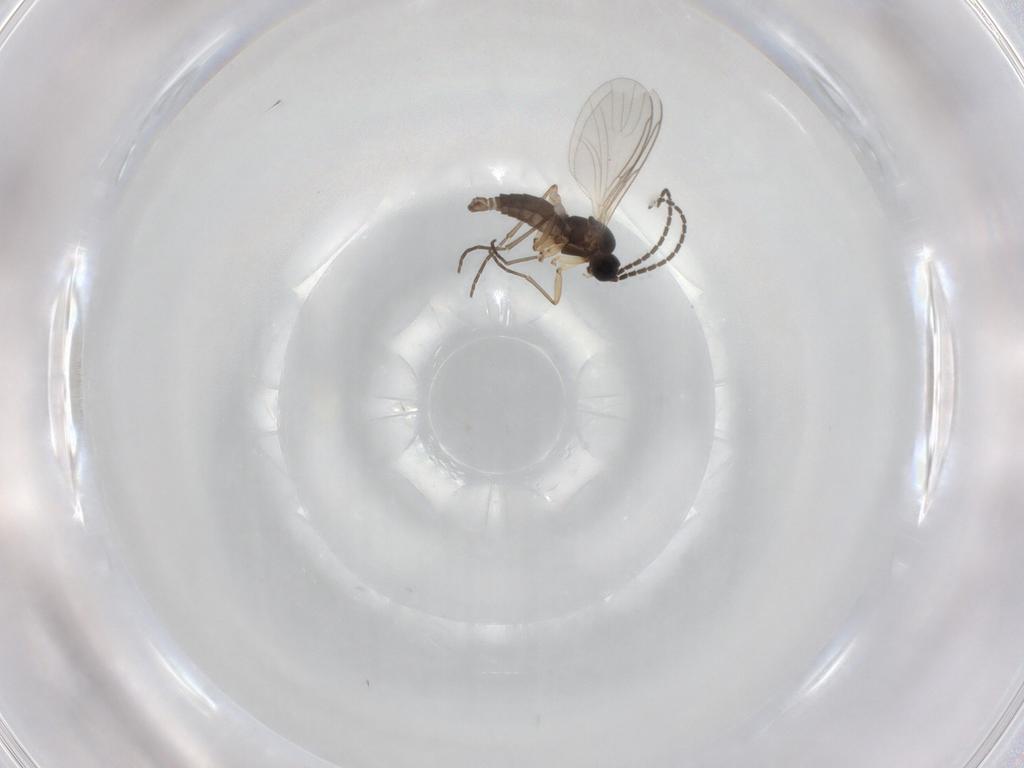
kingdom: Animalia
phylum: Arthropoda
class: Insecta
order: Diptera
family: Sciaridae
